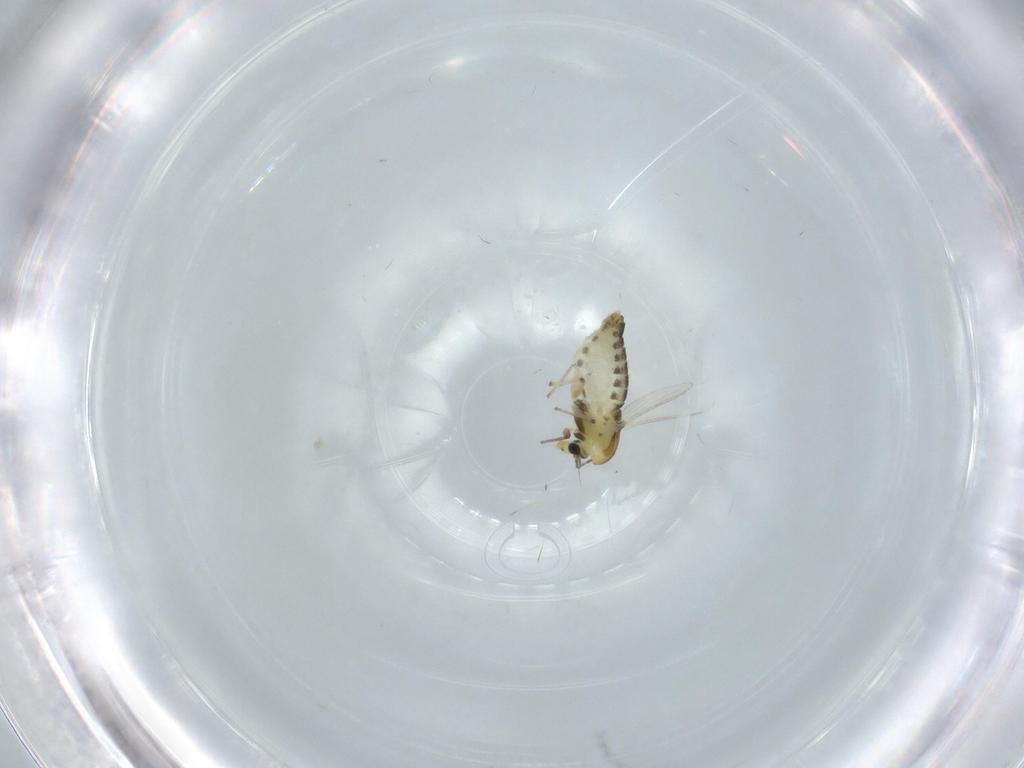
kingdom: Animalia
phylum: Arthropoda
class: Insecta
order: Diptera
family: Chironomidae
